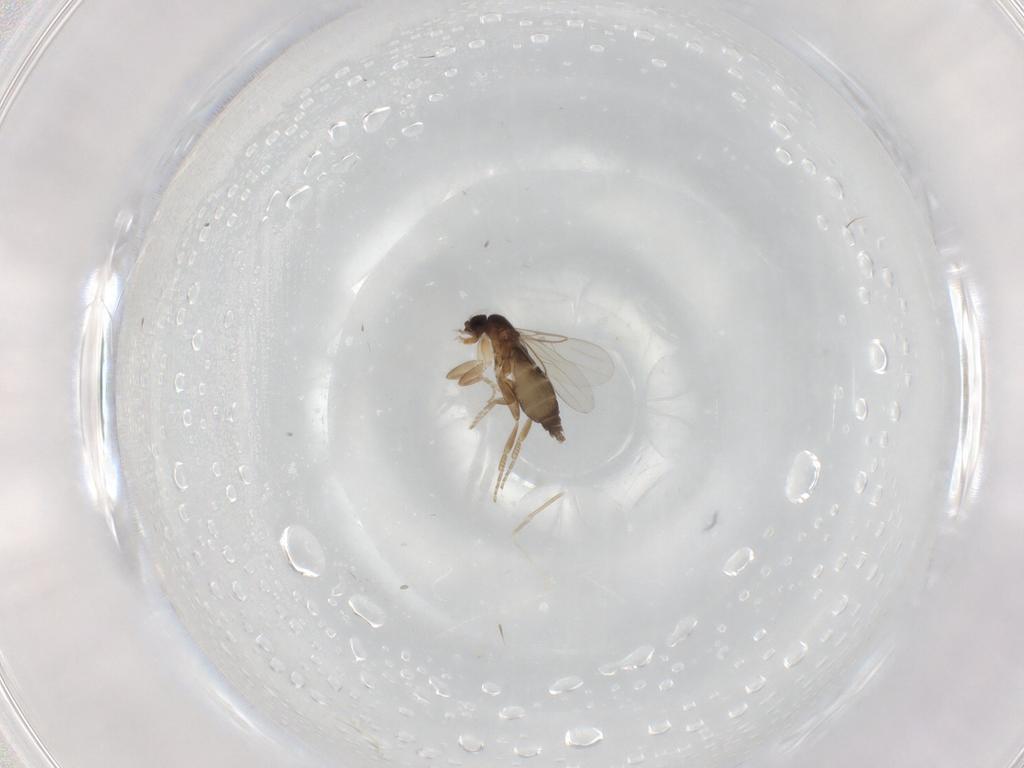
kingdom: Animalia
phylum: Arthropoda
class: Insecta
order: Diptera
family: Phoridae
